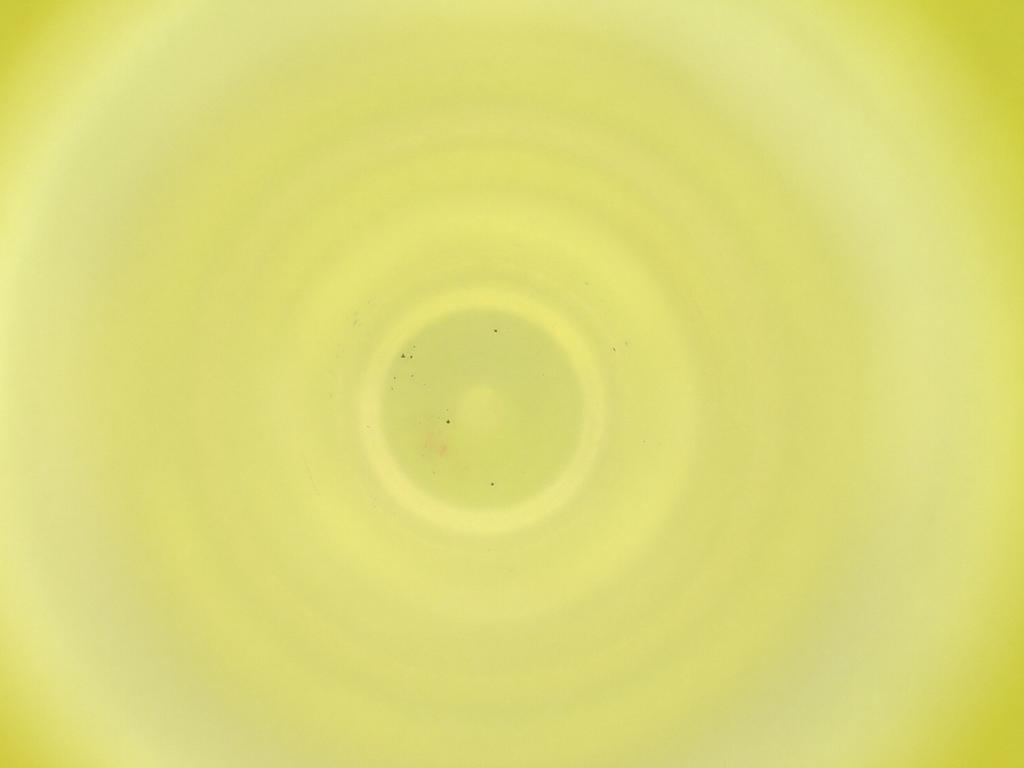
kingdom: Animalia
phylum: Arthropoda
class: Insecta
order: Diptera
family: Cecidomyiidae
